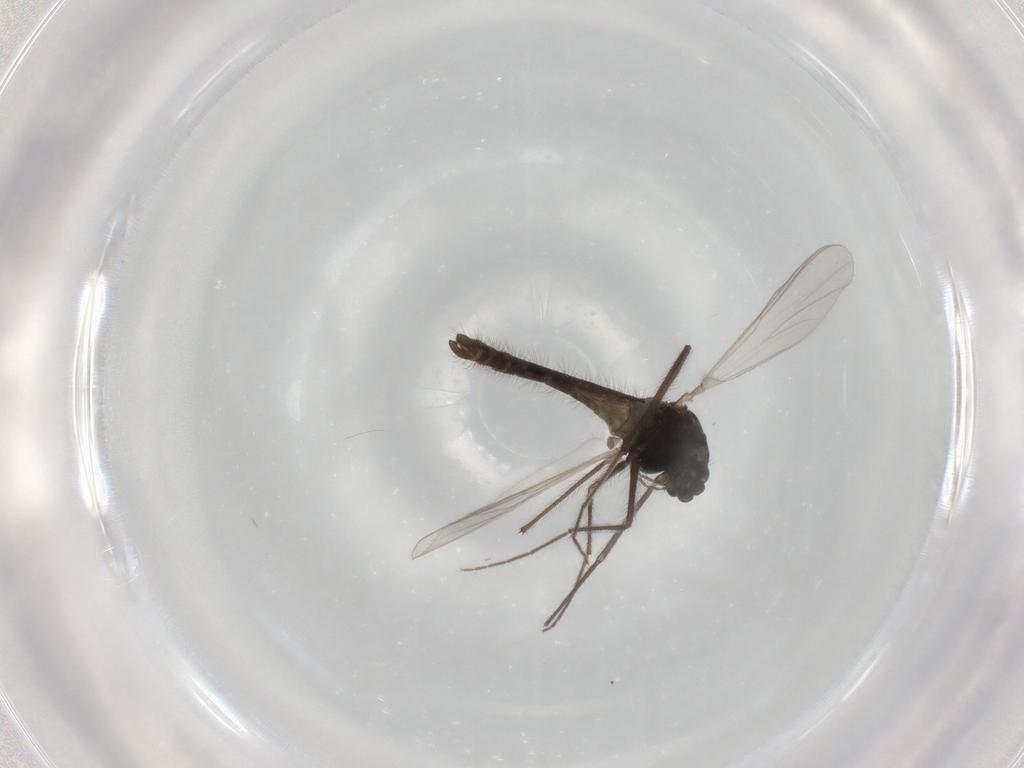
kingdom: Animalia
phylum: Arthropoda
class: Insecta
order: Diptera
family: Chironomidae
